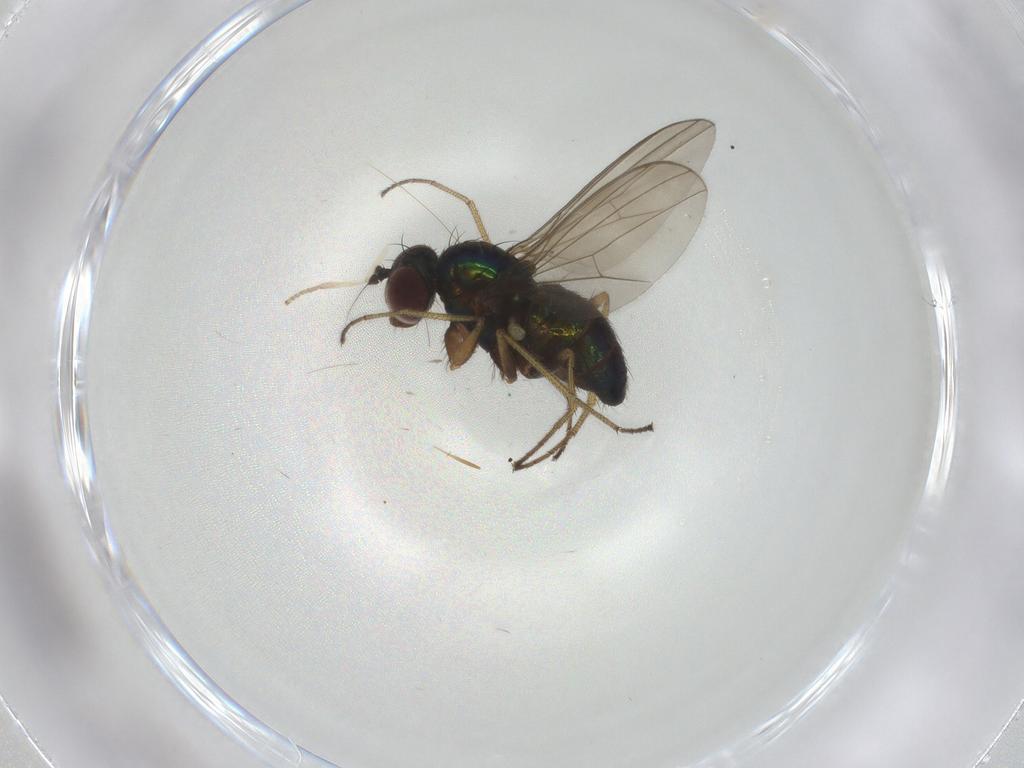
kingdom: Animalia
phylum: Arthropoda
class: Insecta
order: Diptera
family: Dolichopodidae
